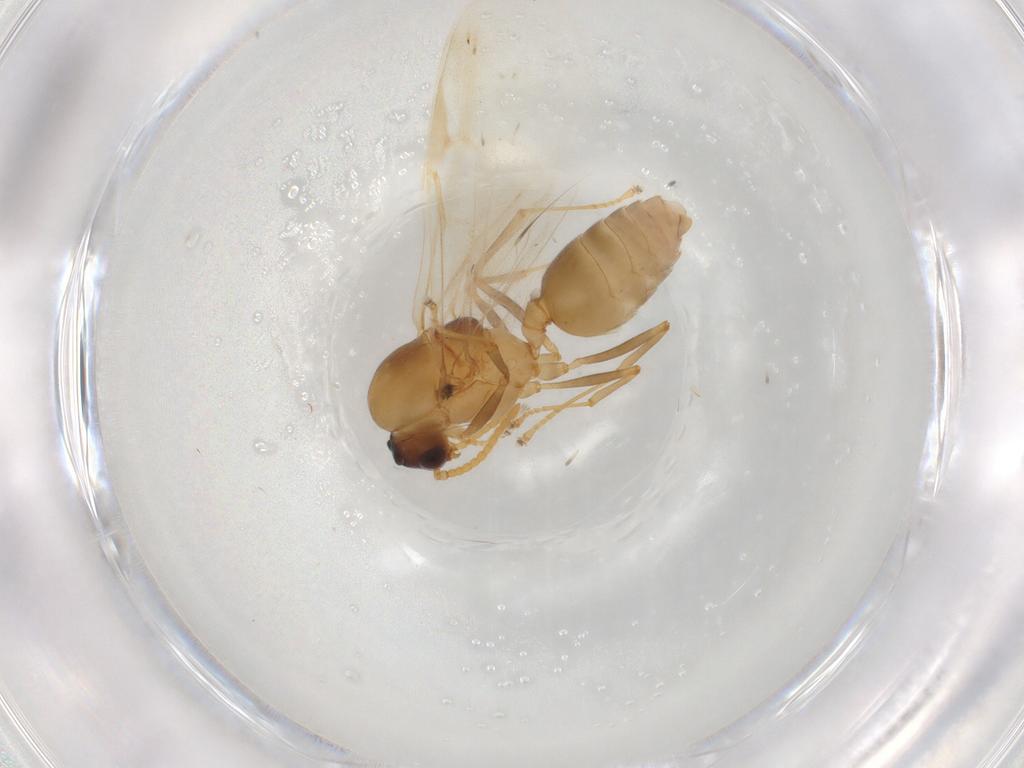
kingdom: Animalia
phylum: Arthropoda
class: Insecta
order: Hymenoptera
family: Formicidae
